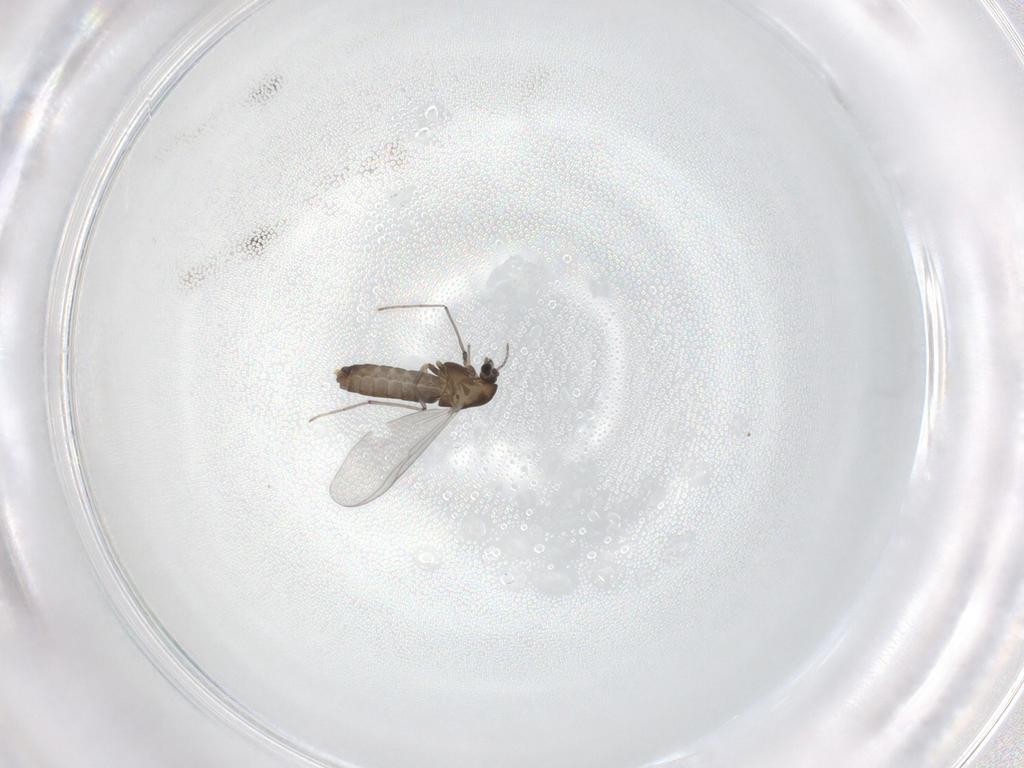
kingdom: Animalia
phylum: Arthropoda
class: Insecta
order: Diptera
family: Chironomidae
